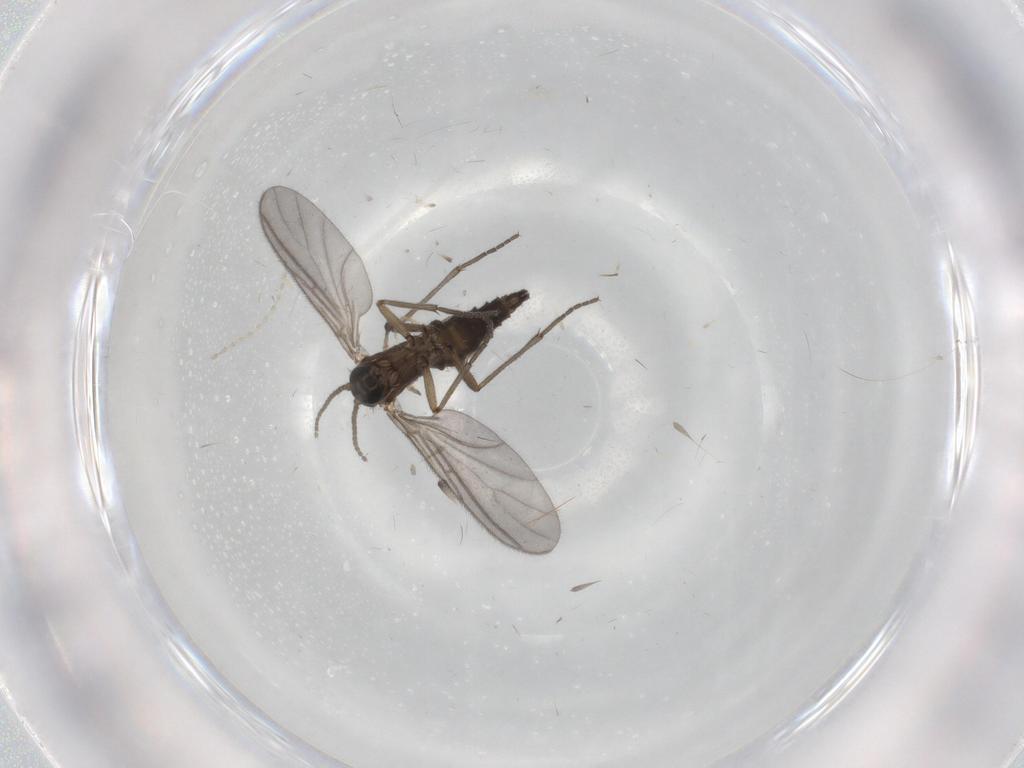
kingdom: Animalia
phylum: Arthropoda
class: Insecta
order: Diptera
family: Sciaridae
